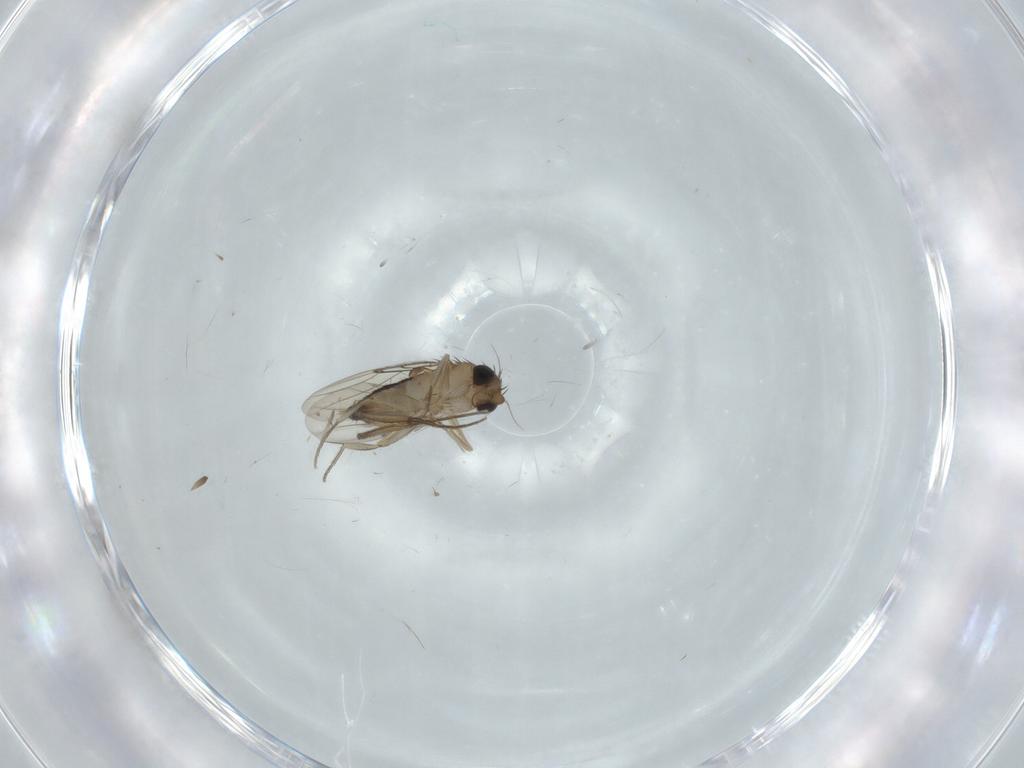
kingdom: Animalia
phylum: Arthropoda
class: Insecta
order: Diptera
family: Phoridae
